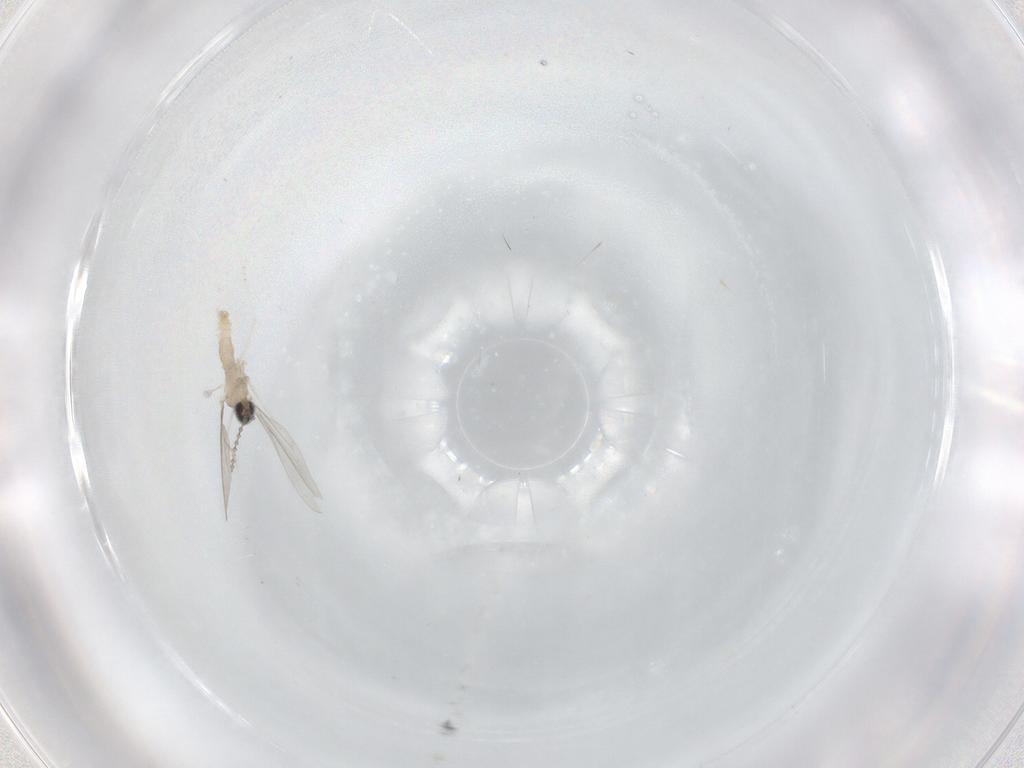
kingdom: Animalia
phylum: Arthropoda
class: Insecta
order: Diptera
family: Cecidomyiidae
